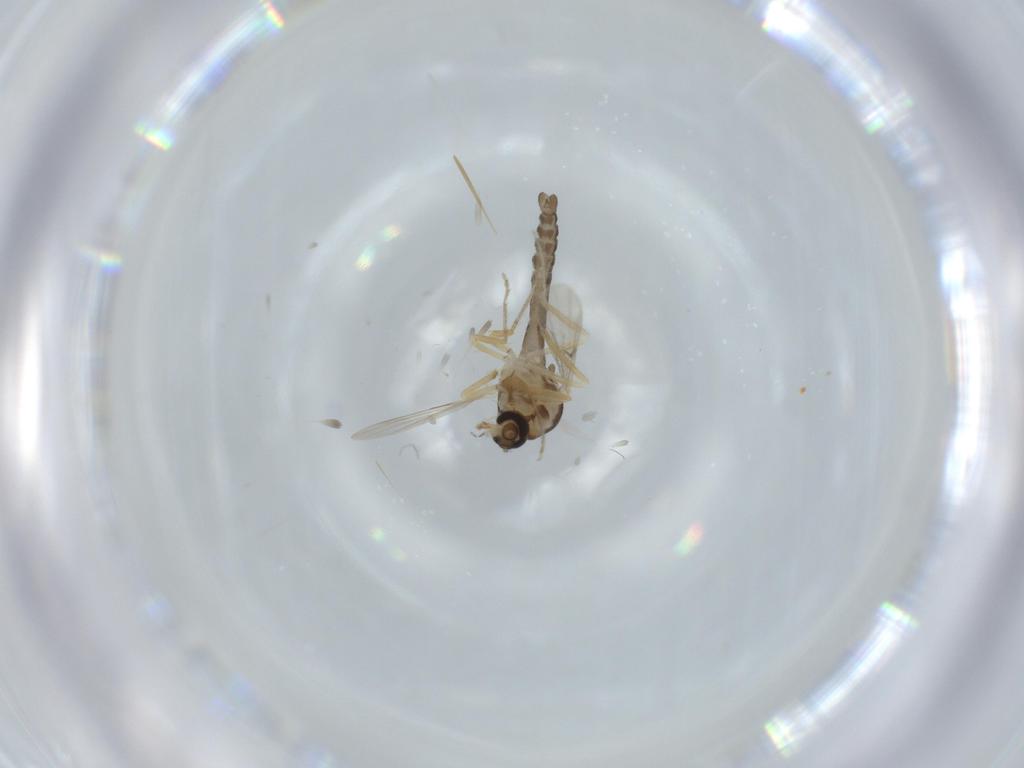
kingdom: Animalia
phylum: Arthropoda
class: Insecta
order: Diptera
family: Ceratopogonidae
